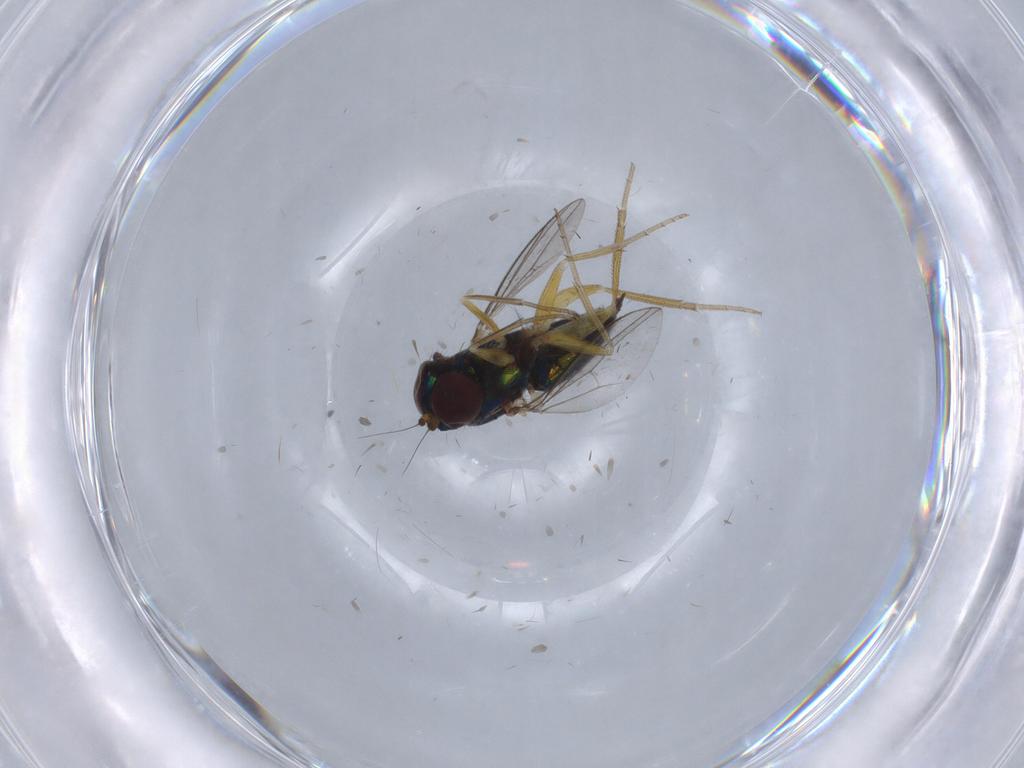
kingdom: Animalia
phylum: Arthropoda
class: Insecta
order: Diptera
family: Dolichopodidae
